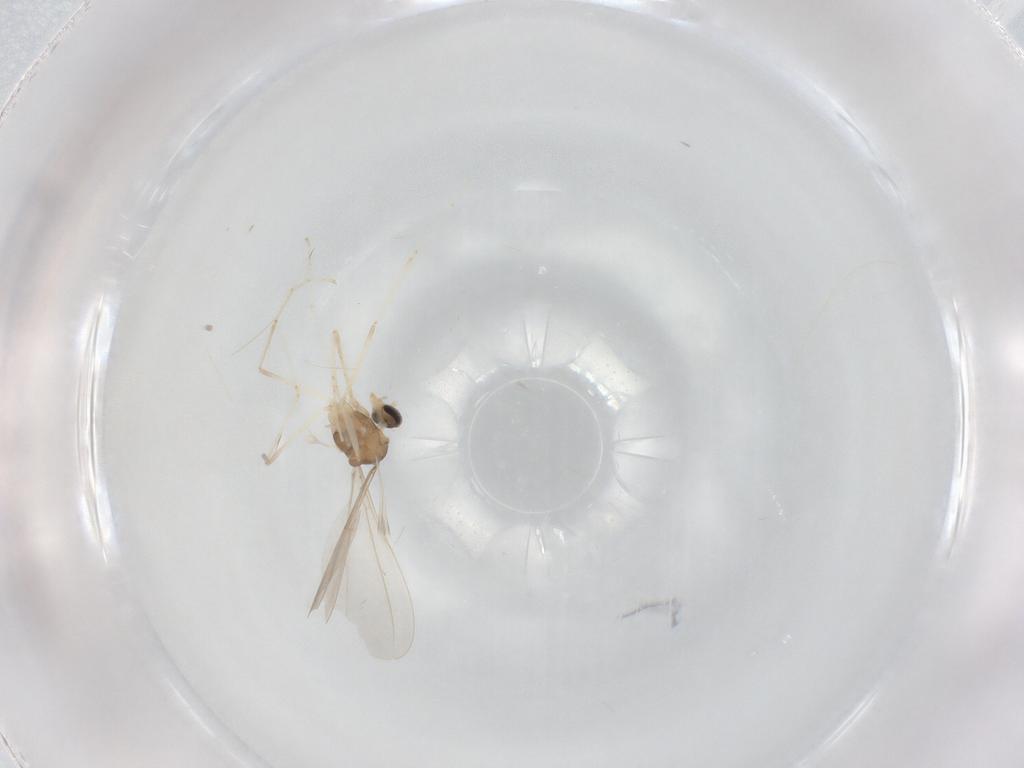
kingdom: Animalia
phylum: Arthropoda
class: Insecta
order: Diptera
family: Cecidomyiidae
